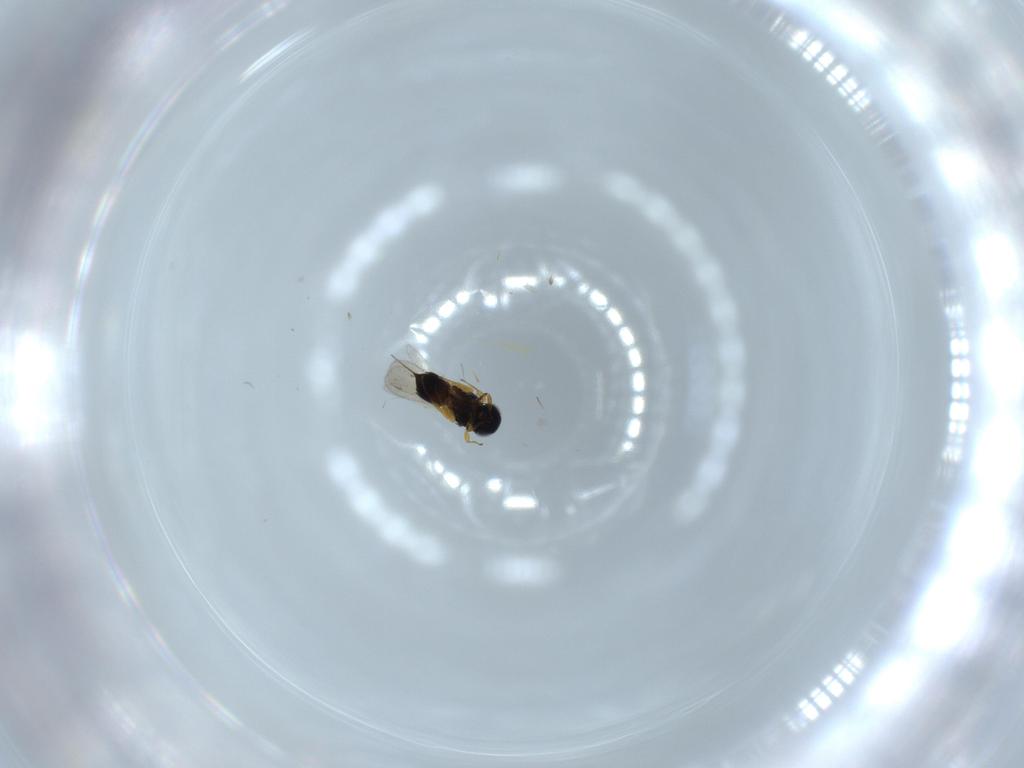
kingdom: Animalia
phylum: Arthropoda
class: Insecta
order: Hymenoptera
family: Scelionidae
